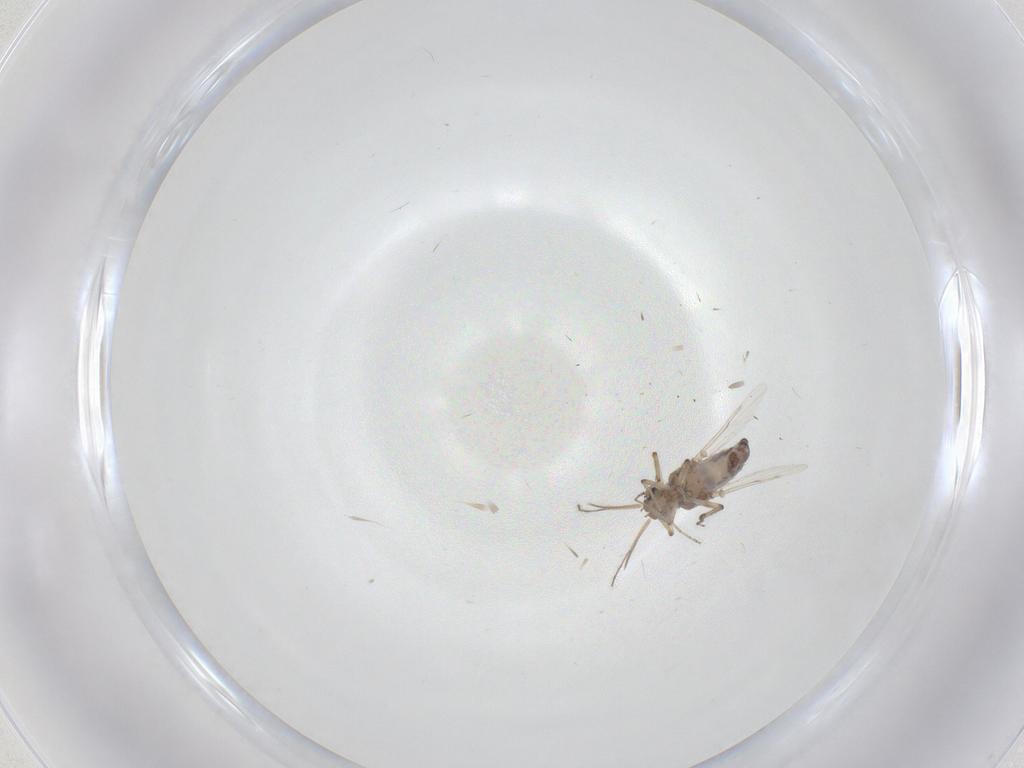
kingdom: Animalia
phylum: Arthropoda
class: Insecta
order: Diptera
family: Ceratopogonidae
